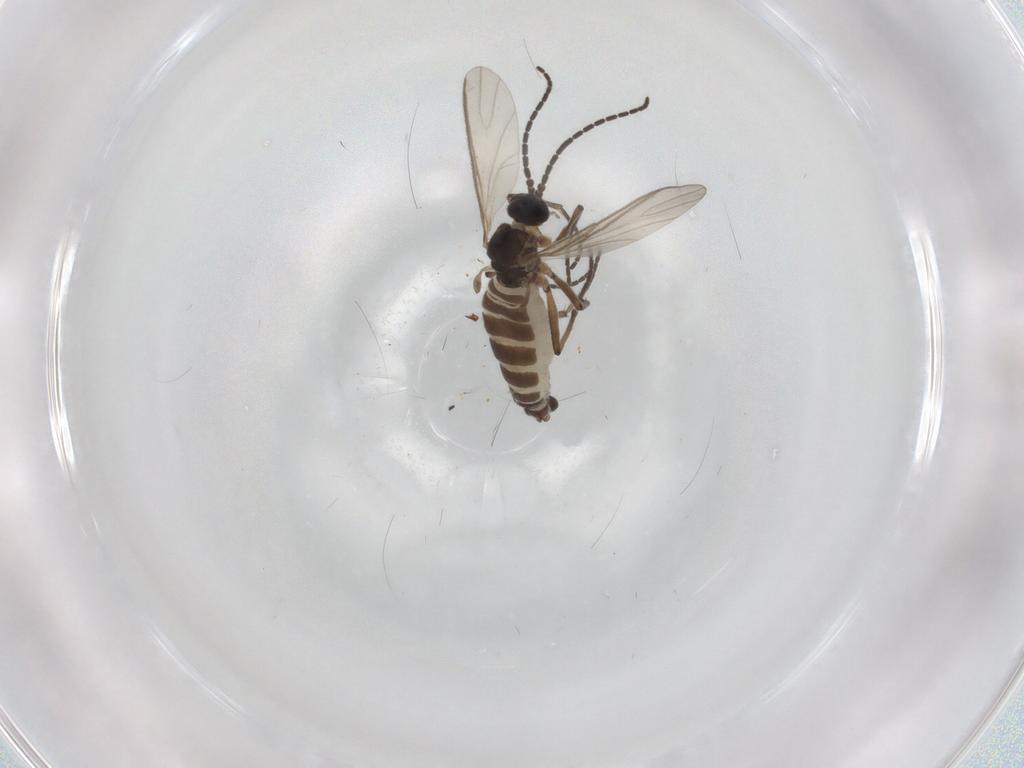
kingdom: Animalia
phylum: Arthropoda
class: Insecta
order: Diptera
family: Sciaridae
